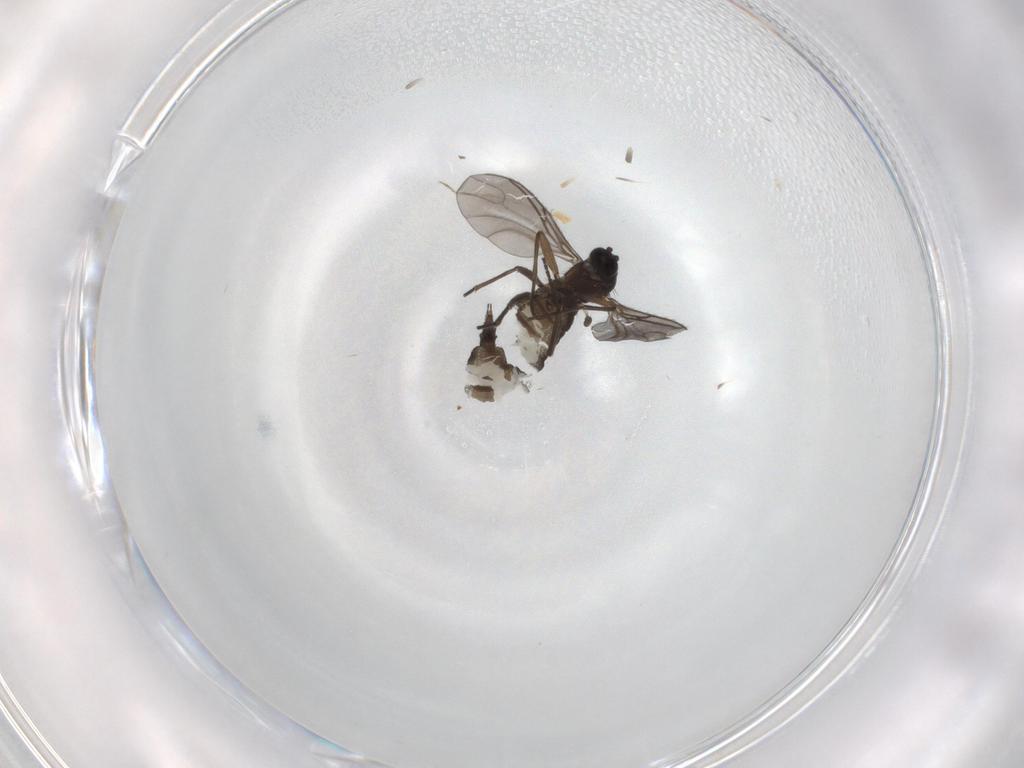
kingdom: Animalia
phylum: Arthropoda
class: Insecta
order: Diptera
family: Sciaridae
